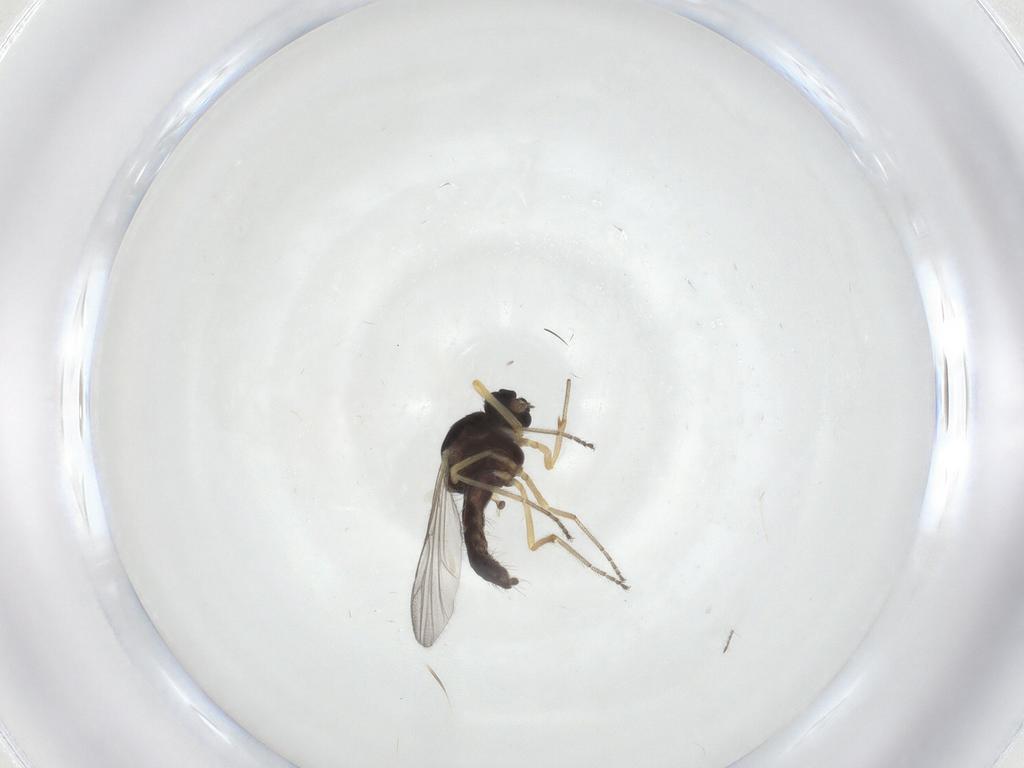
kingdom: Animalia
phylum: Arthropoda
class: Insecta
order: Diptera
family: Ceratopogonidae
